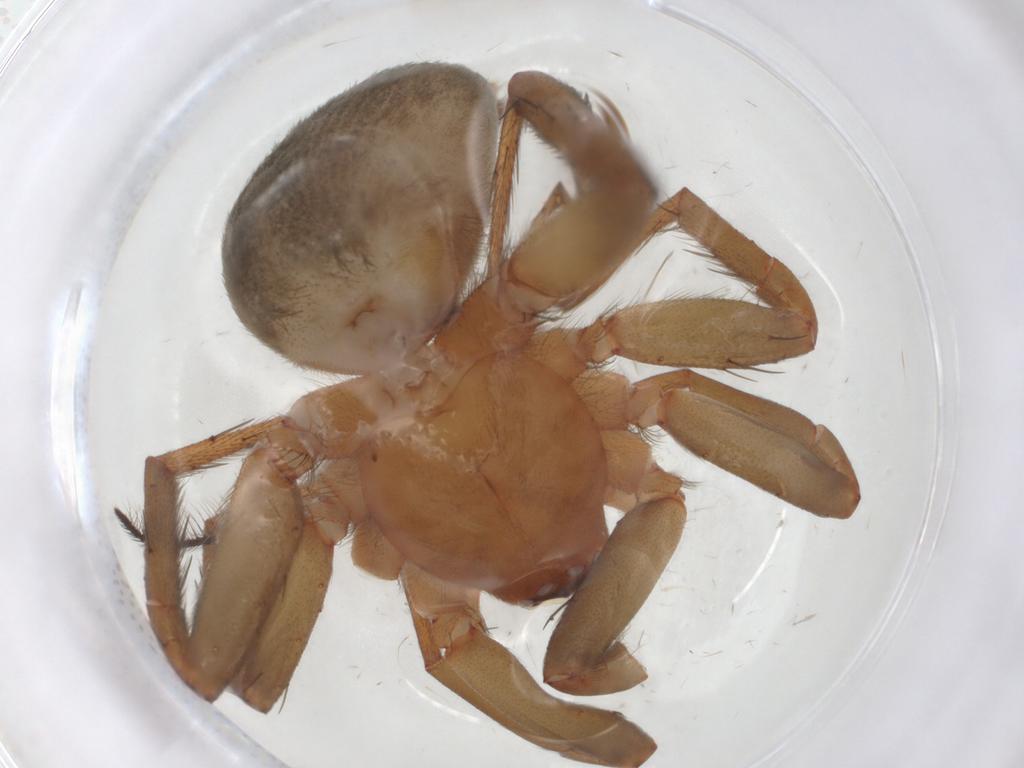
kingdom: Animalia
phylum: Arthropoda
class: Arachnida
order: Araneae
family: Gnaphosidae
